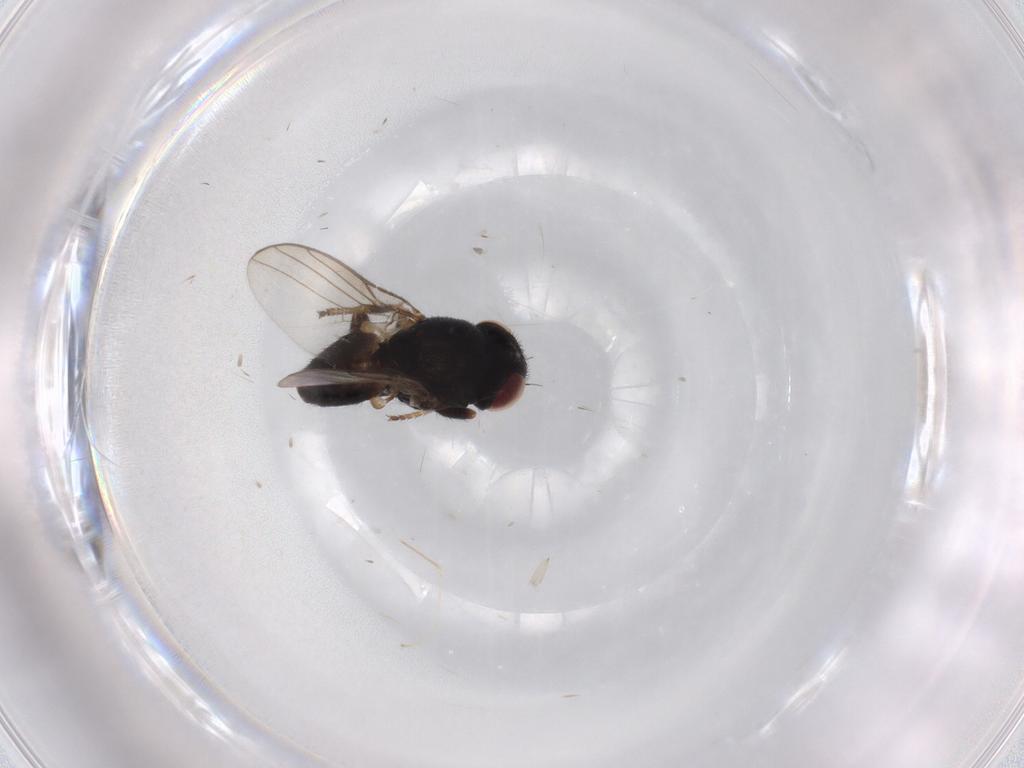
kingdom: Animalia
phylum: Arthropoda
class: Insecta
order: Diptera
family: Chloropidae
